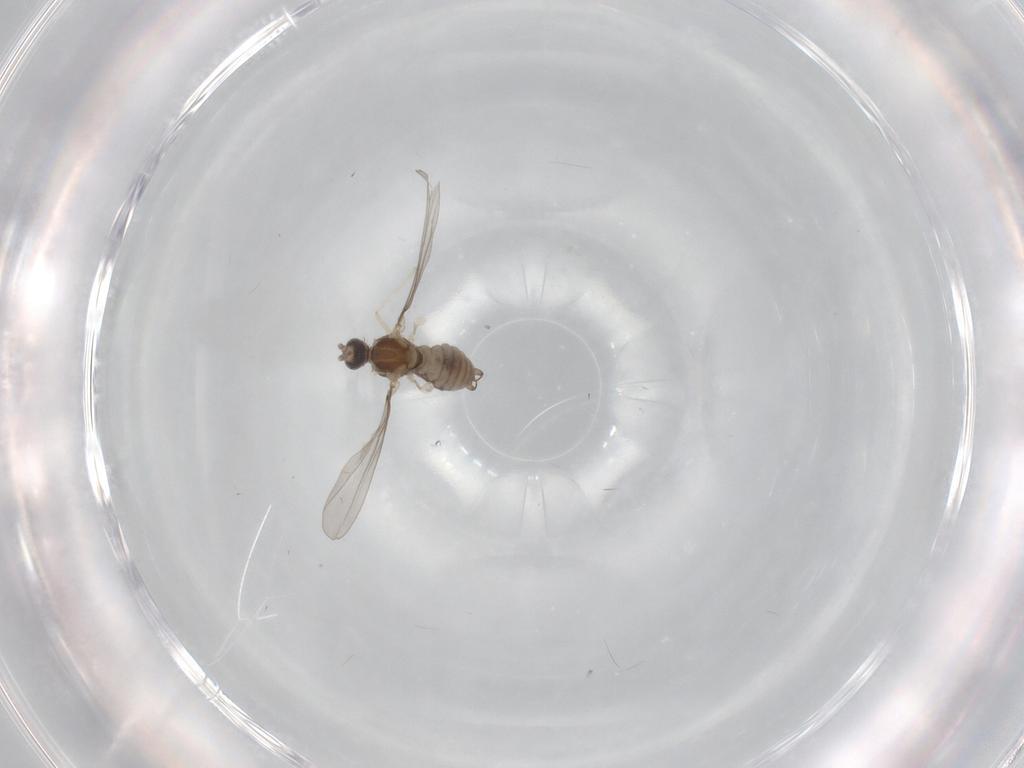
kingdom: Animalia
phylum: Arthropoda
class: Insecta
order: Diptera
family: Cecidomyiidae
